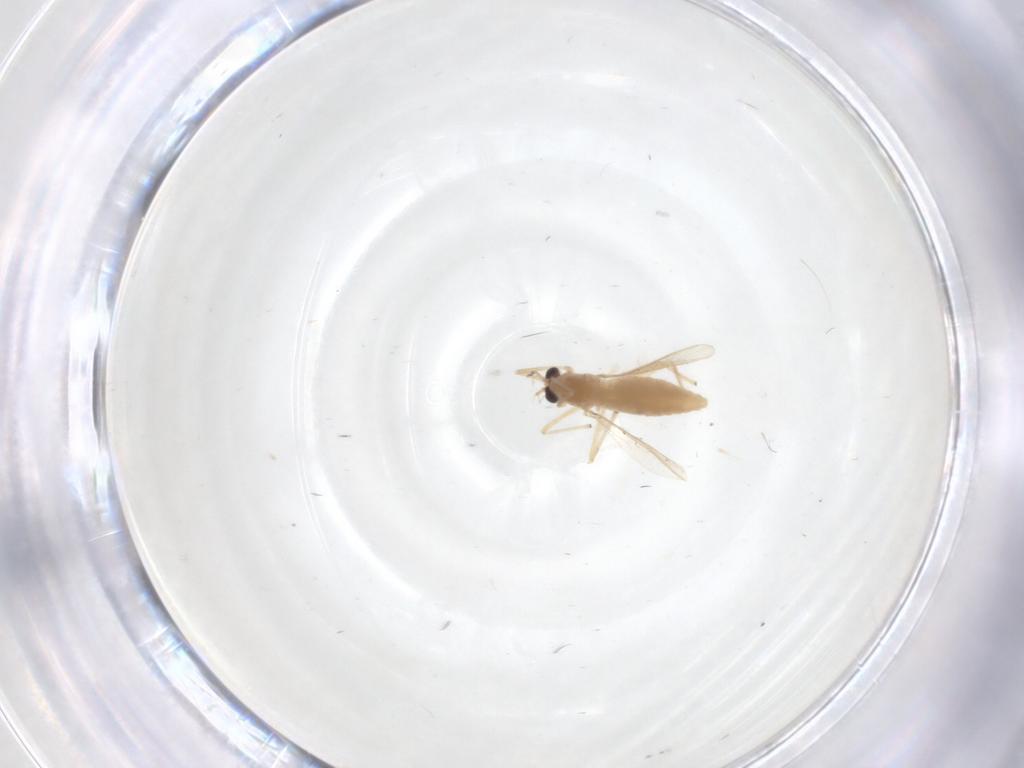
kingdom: Animalia
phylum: Arthropoda
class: Insecta
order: Diptera
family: Chironomidae
